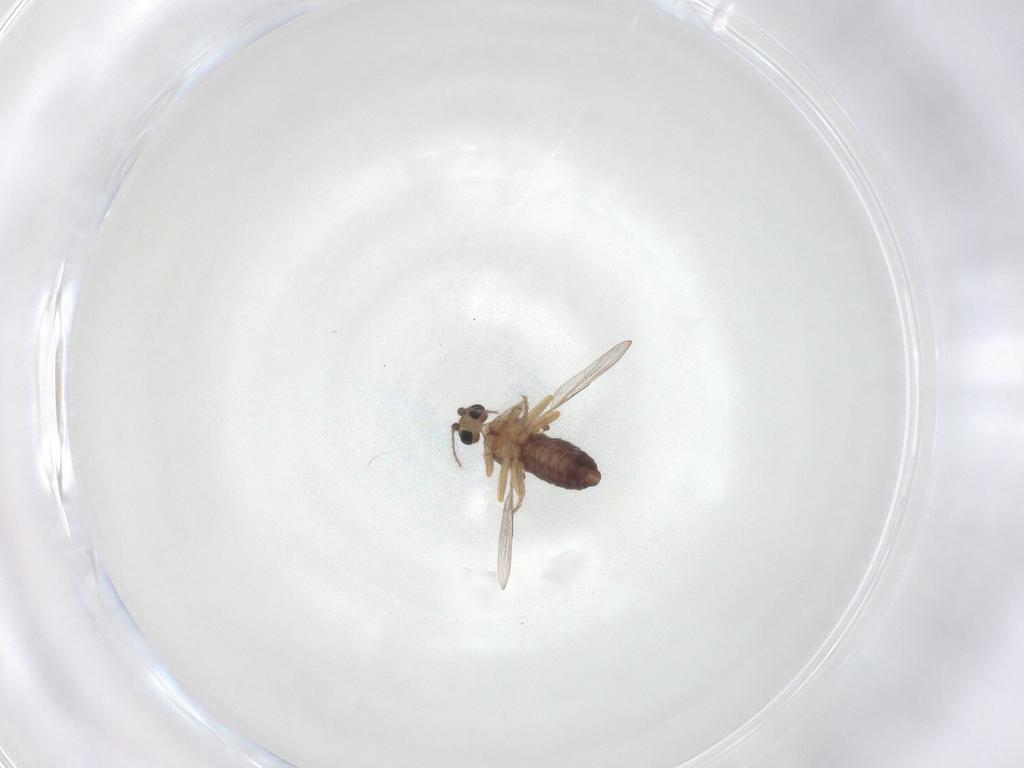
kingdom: Animalia
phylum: Arthropoda
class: Insecta
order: Diptera
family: Ceratopogonidae
